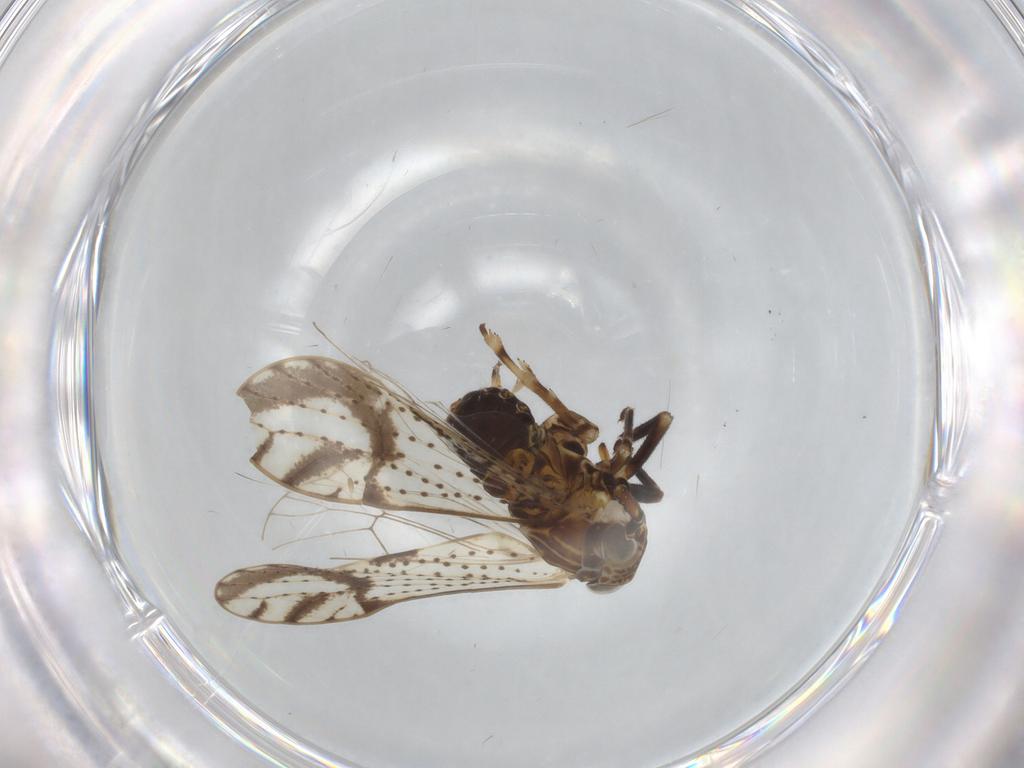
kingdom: Animalia
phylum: Arthropoda
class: Insecta
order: Hemiptera
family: Delphacidae
